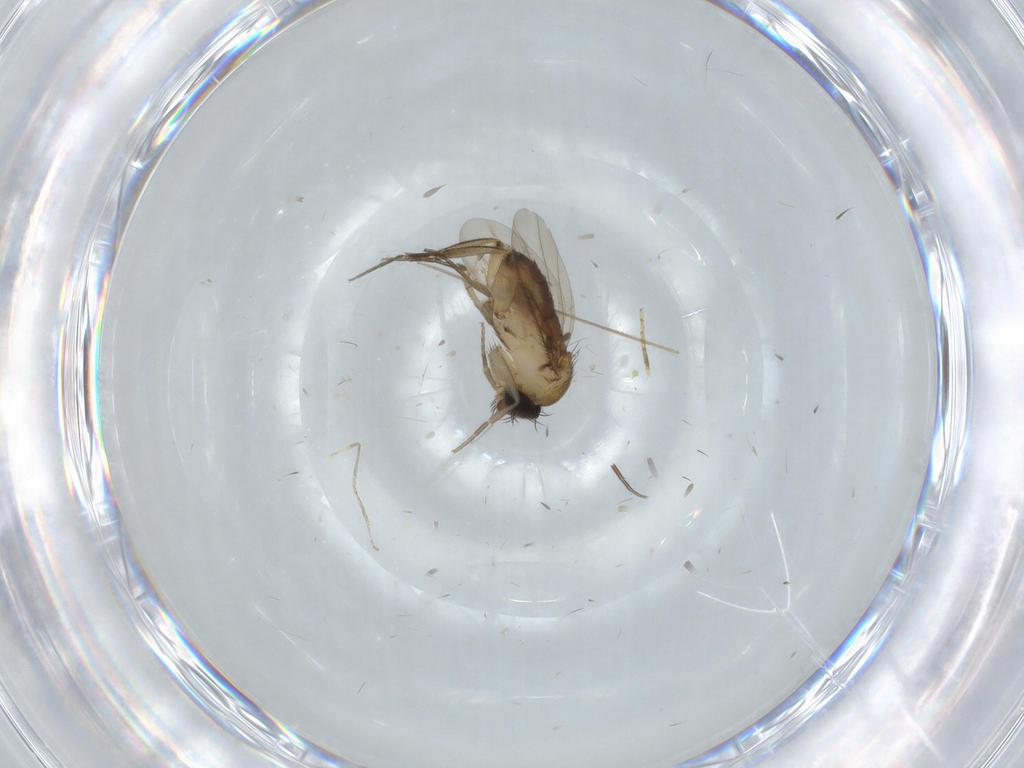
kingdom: Animalia
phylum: Arthropoda
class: Insecta
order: Diptera
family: Phoridae
